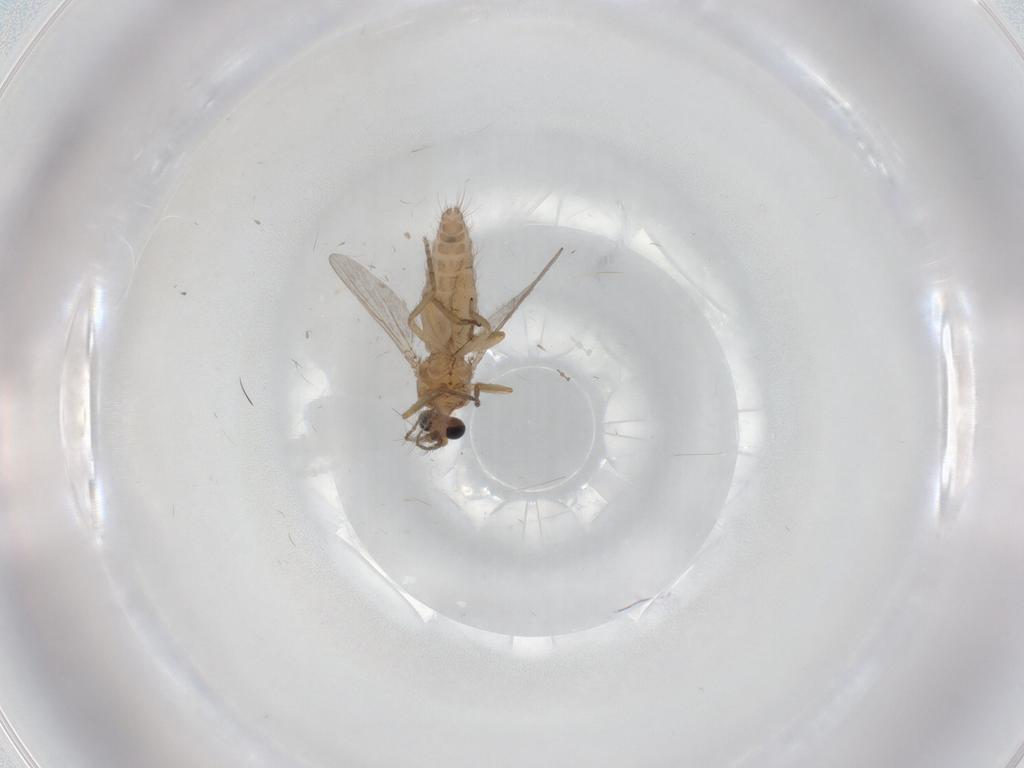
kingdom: Animalia
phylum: Arthropoda
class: Insecta
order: Diptera
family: Ceratopogonidae
